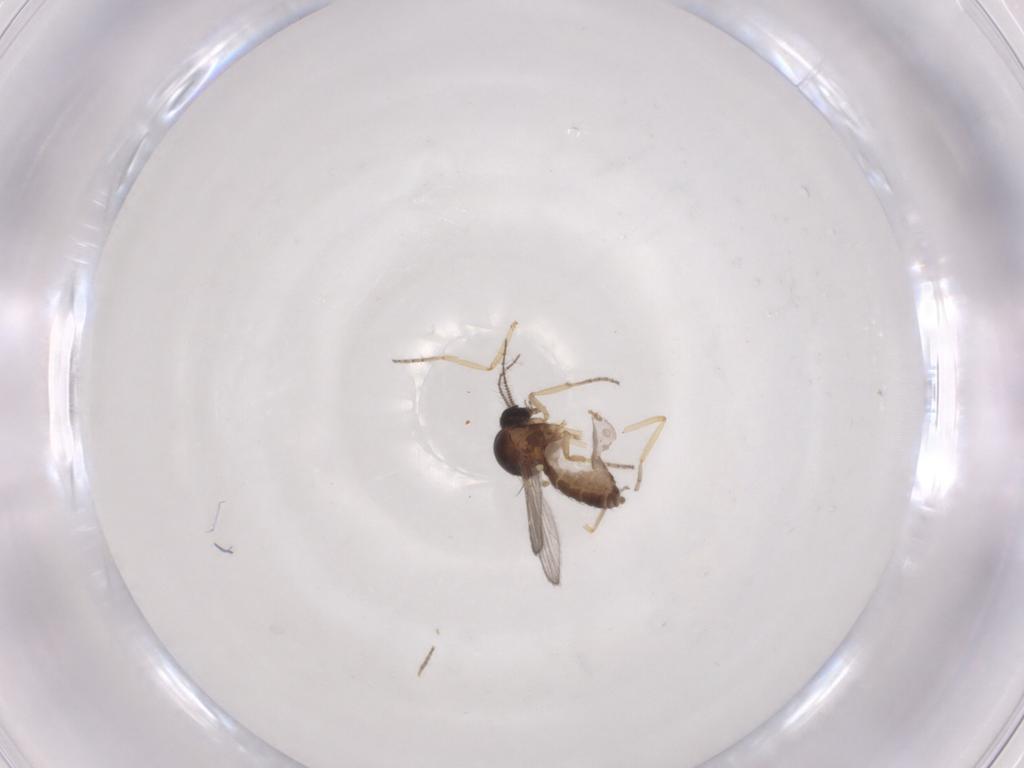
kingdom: Animalia
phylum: Arthropoda
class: Insecta
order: Diptera
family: Ceratopogonidae
